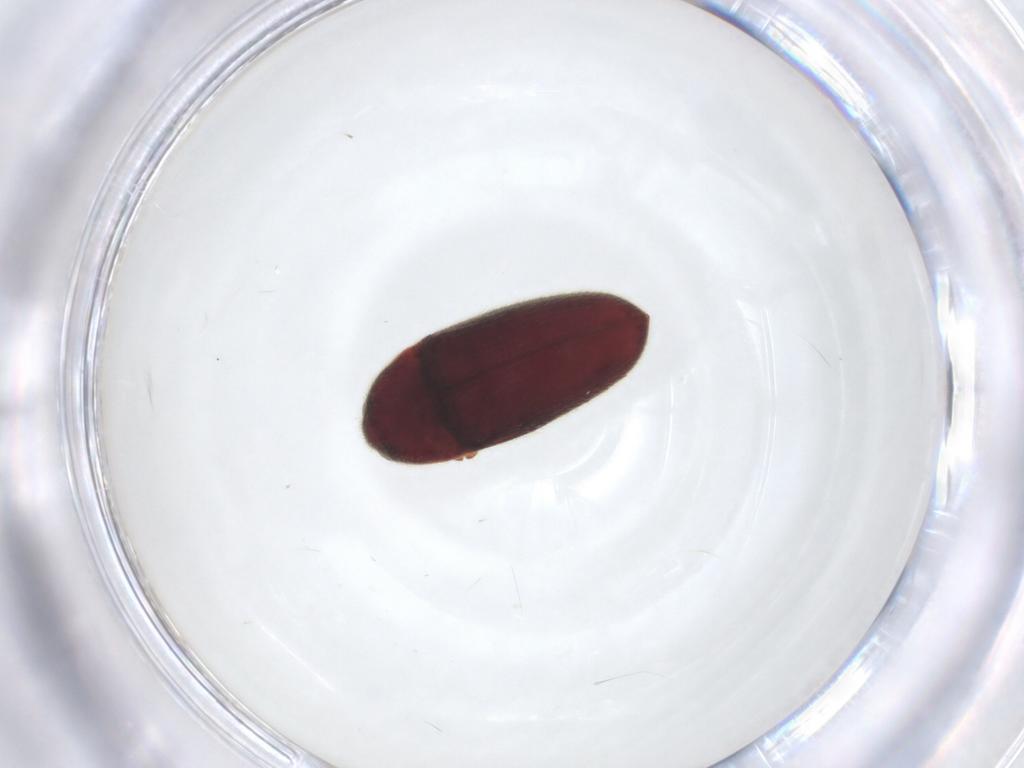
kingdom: Animalia
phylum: Arthropoda
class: Insecta
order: Coleoptera
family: Throscidae
